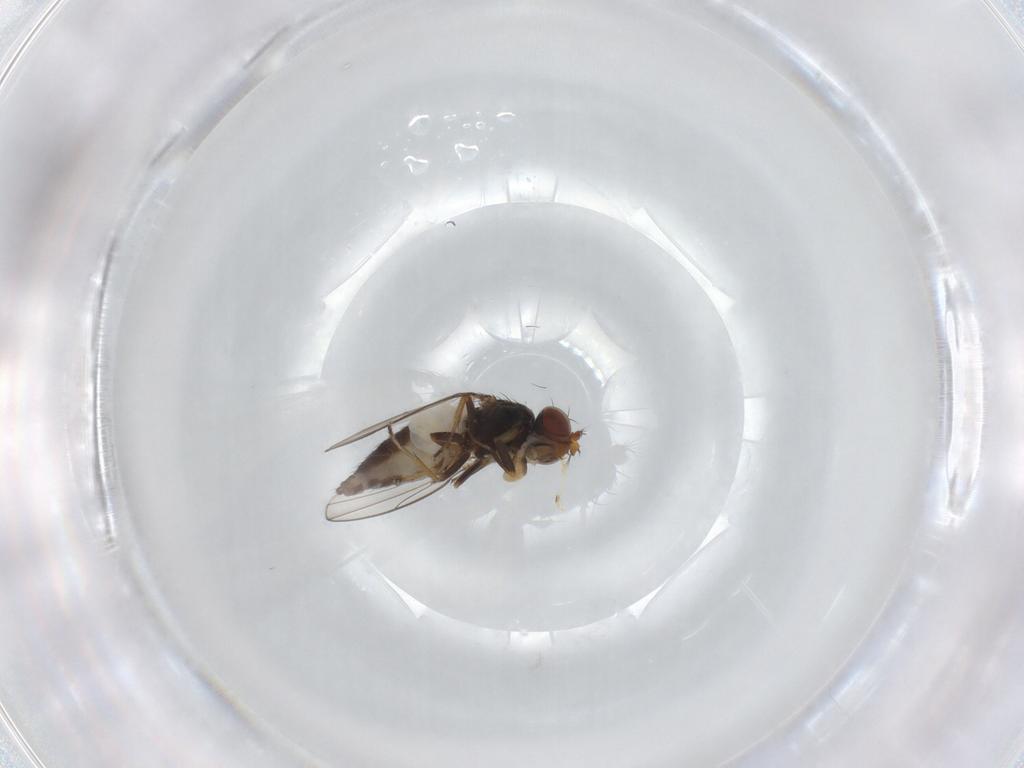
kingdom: Animalia
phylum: Arthropoda
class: Insecta
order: Diptera
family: Ephydridae
